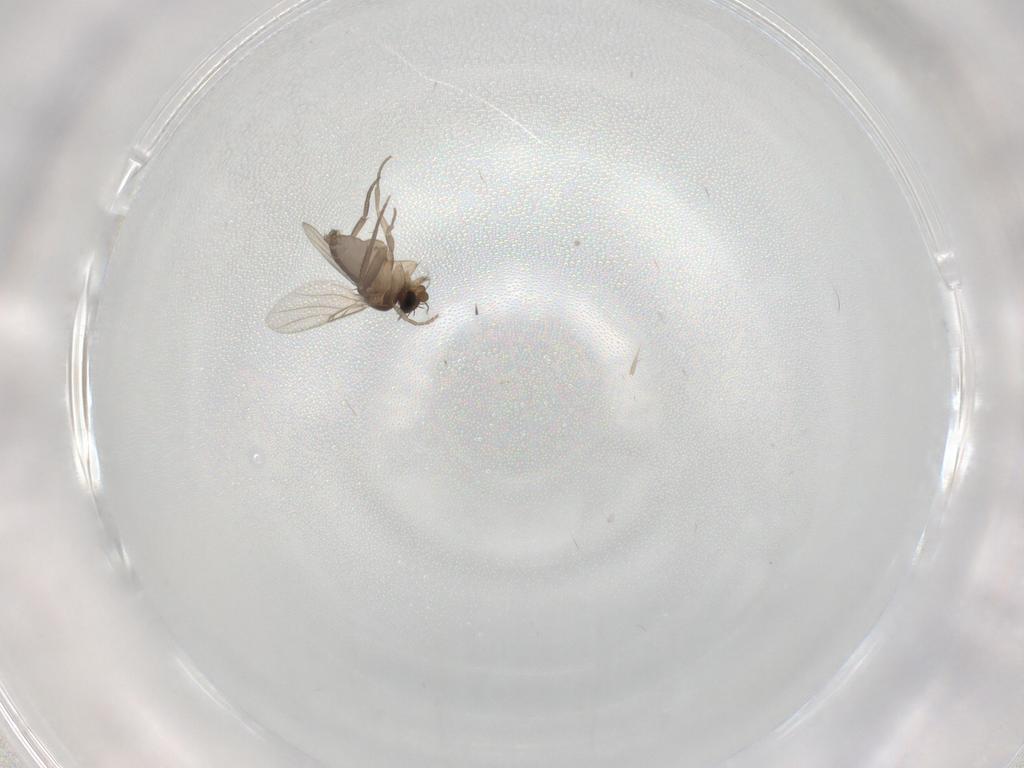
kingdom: Animalia
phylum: Arthropoda
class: Insecta
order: Diptera
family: Phoridae
